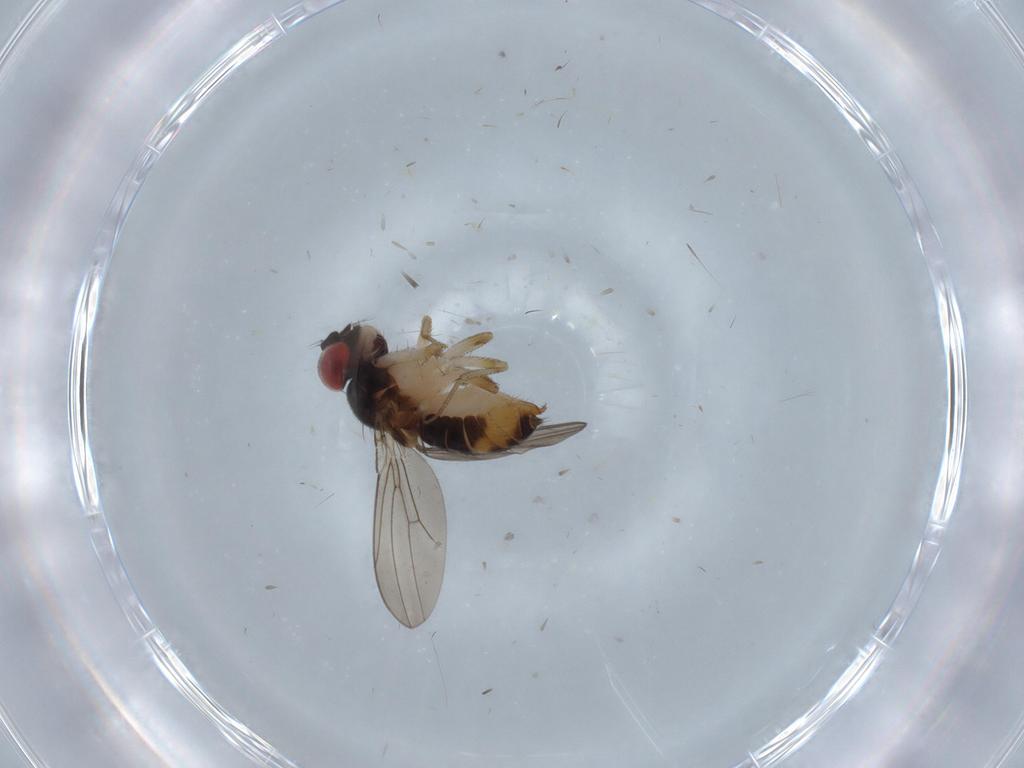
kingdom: Animalia
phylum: Arthropoda
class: Insecta
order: Diptera
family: Drosophilidae
